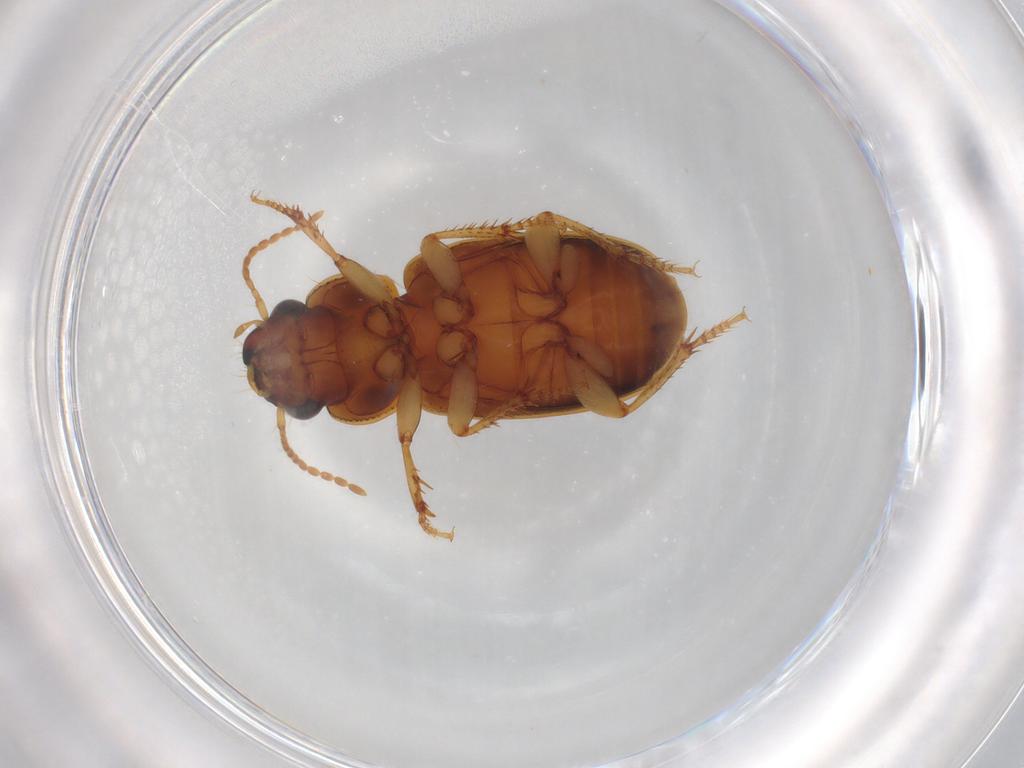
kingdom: Animalia
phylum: Arthropoda
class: Insecta
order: Coleoptera
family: Carabidae
